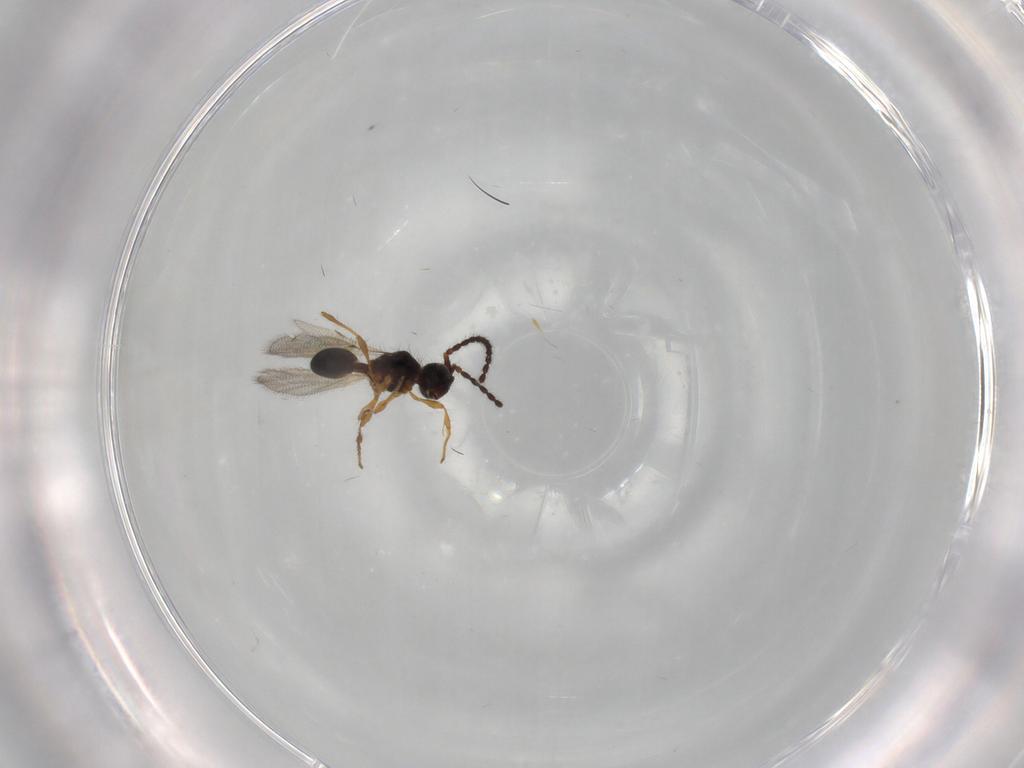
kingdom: Animalia
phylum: Arthropoda
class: Insecta
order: Hymenoptera
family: Diapriidae
